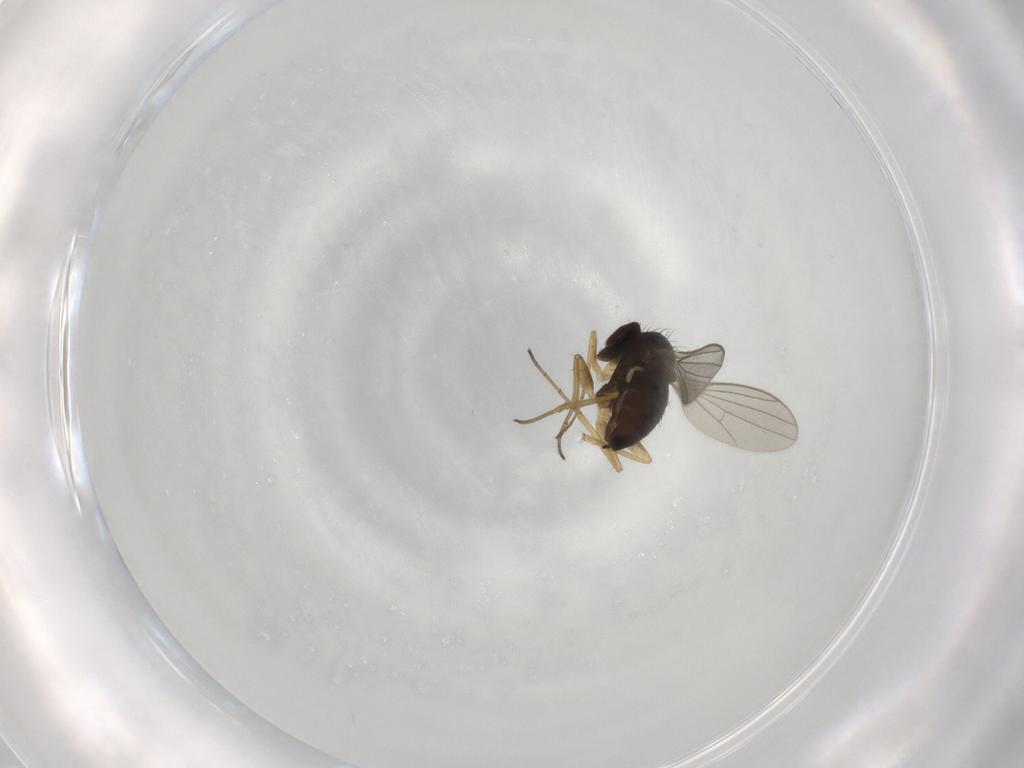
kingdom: Animalia
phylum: Arthropoda
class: Insecta
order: Diptera
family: Dolichopodidae
